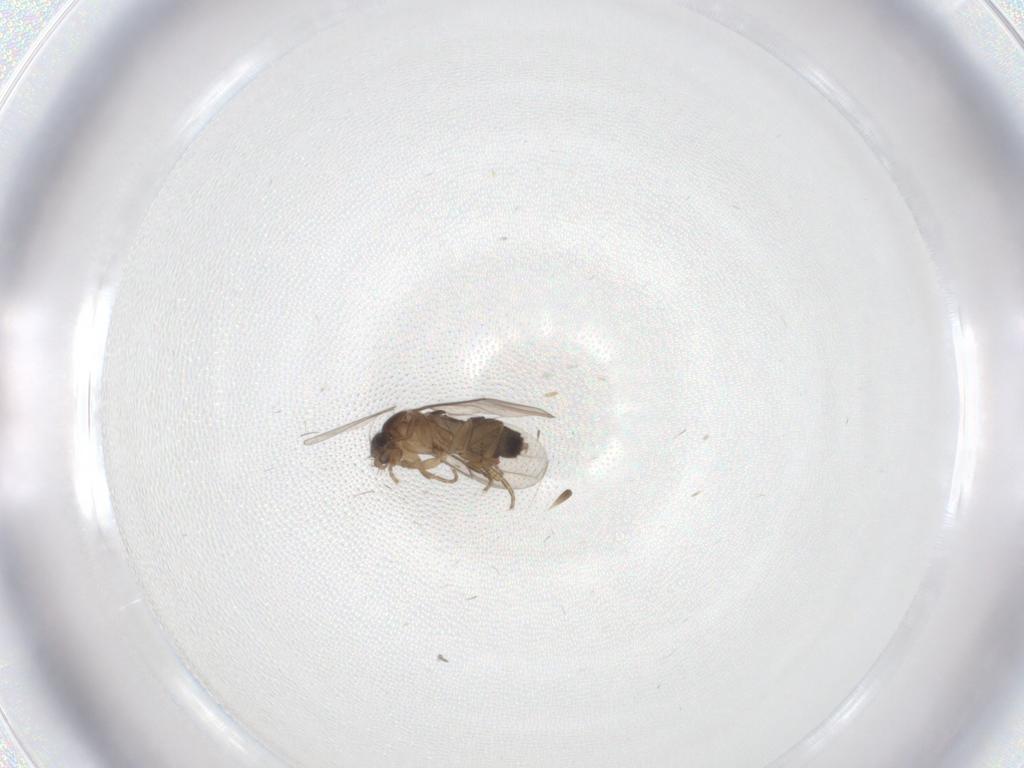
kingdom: Animalia
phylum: Arthropoda
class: Insecta
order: Diptera
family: Phoridae
